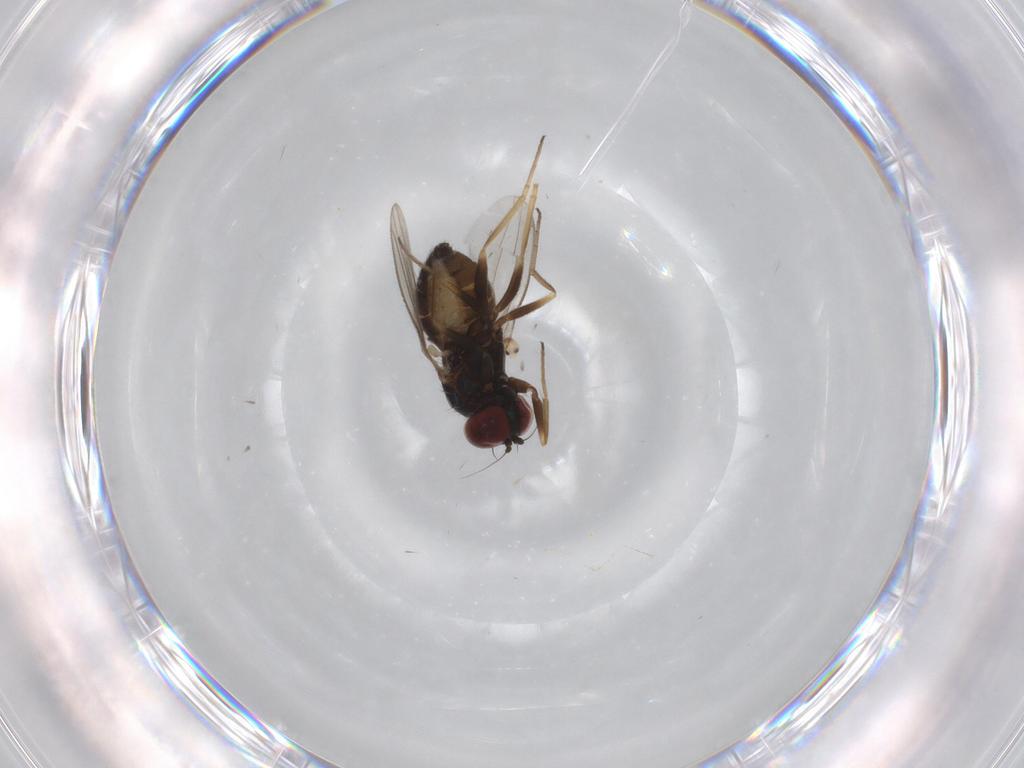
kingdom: Animalia
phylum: Arthropoda
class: Insecta
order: Diptera
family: Dolichopodidae
